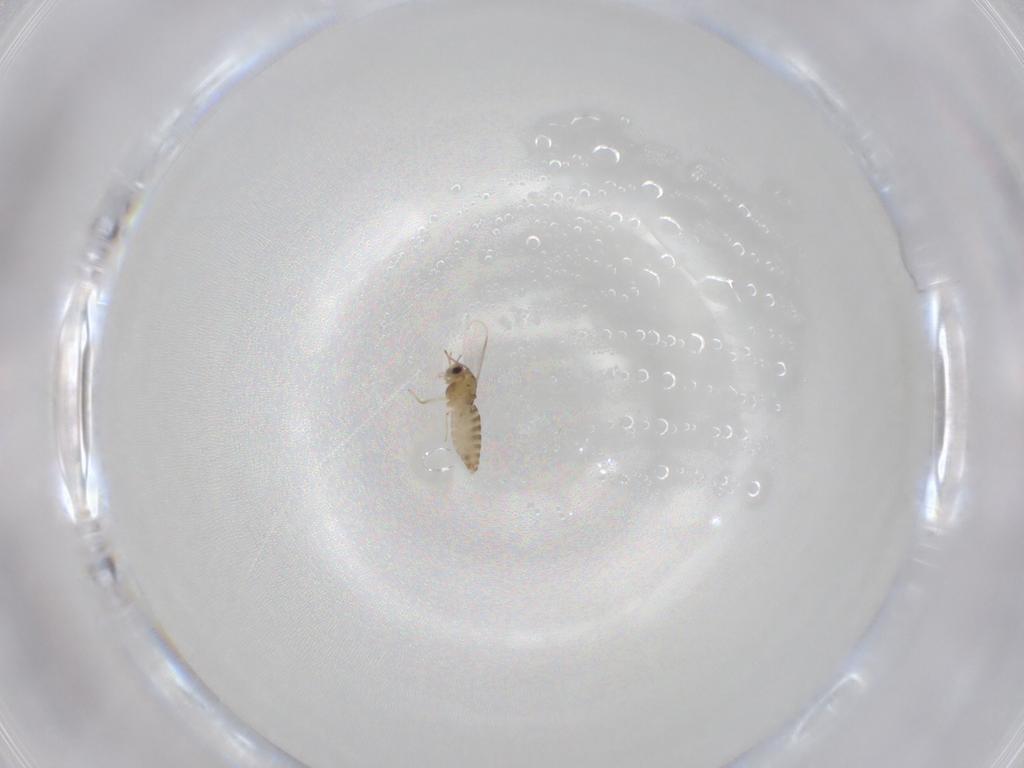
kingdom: Animalia
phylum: Arthropoda
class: Insecta
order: Diptera
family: Chironomidae
